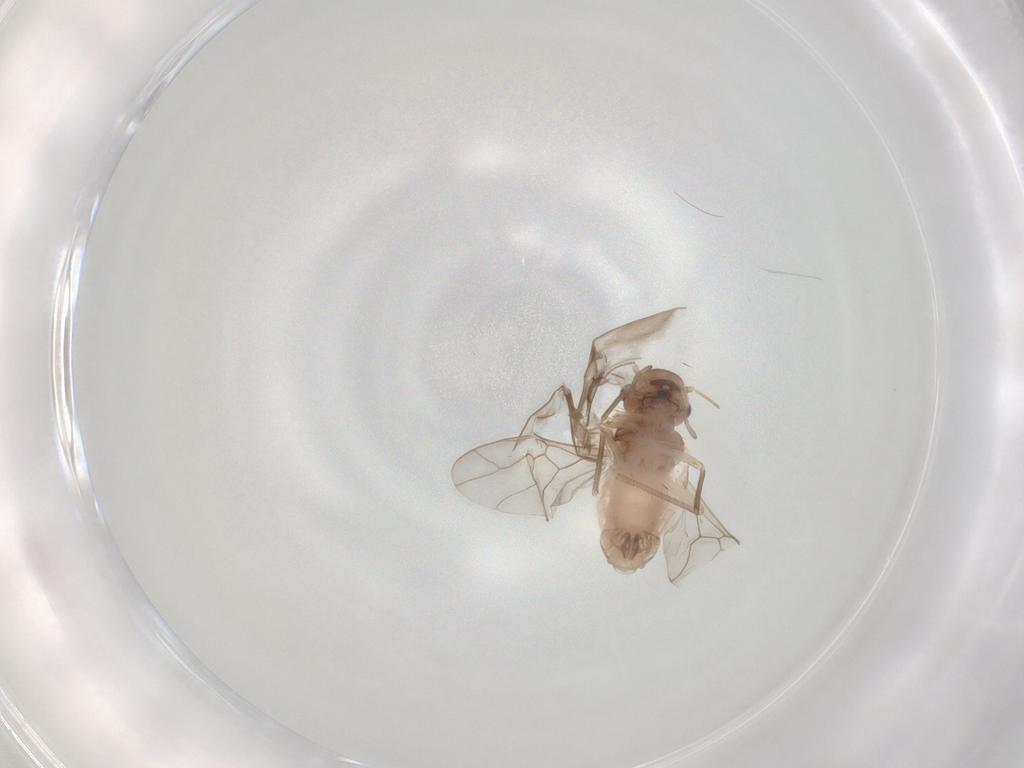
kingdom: Animalia
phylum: Arthropoda
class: Insecta
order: Psocodea
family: Peripsocidae
